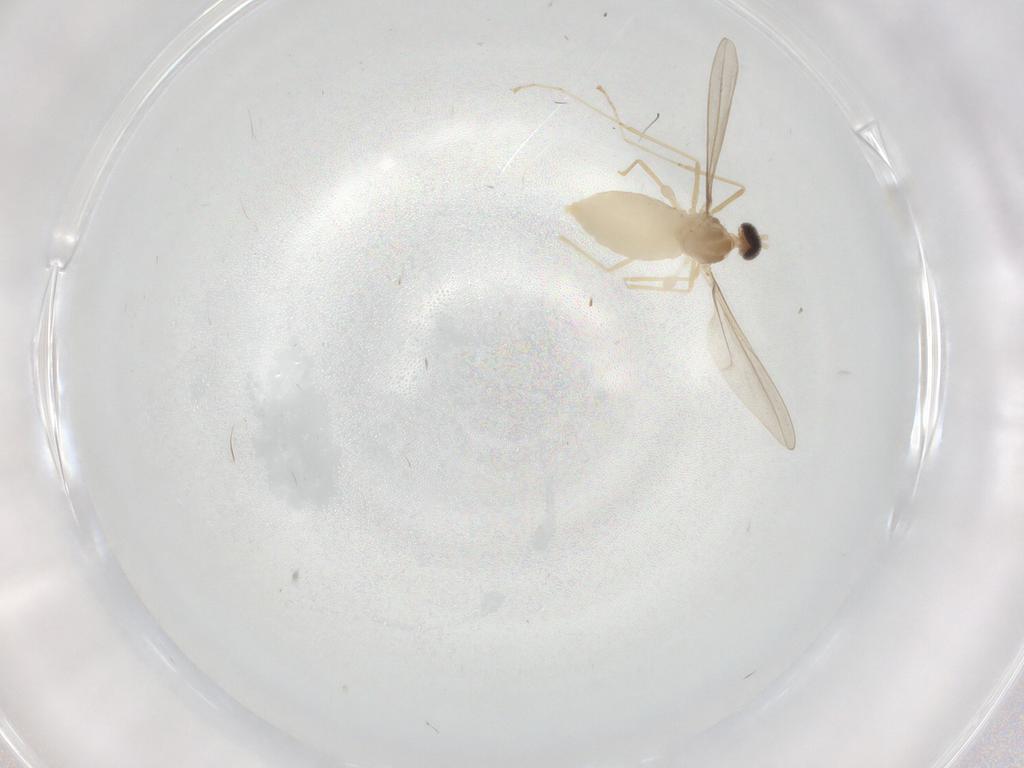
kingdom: Animalia
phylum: Arthropoda
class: Insecta
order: Diptera
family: Cecidomyiidae
